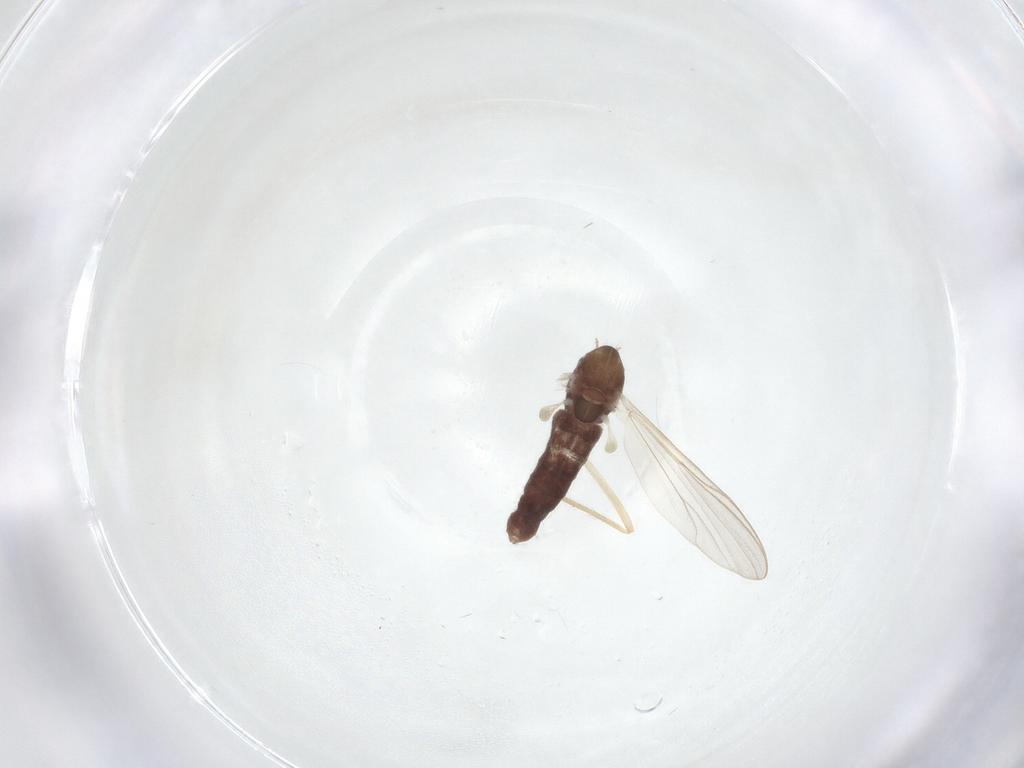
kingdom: Animalia
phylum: Arthropoda
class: Insecta
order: Diptera
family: Chironomidae
